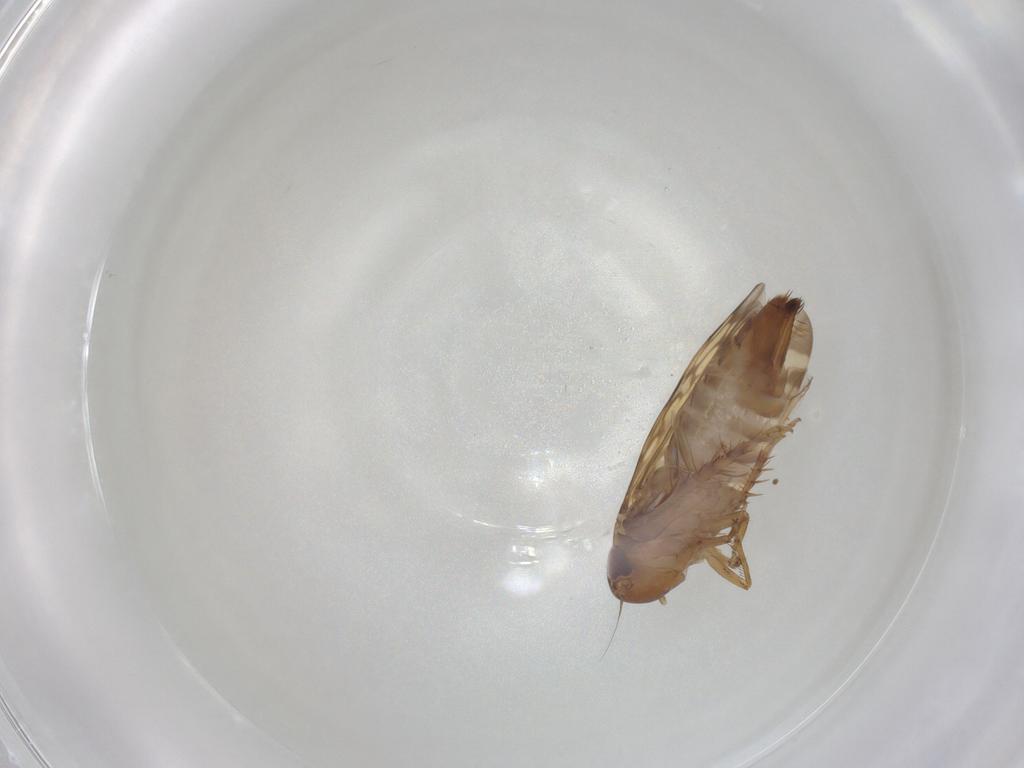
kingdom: Animalia
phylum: Arthropoda
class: Insecta
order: Hemiptera
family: Cicadellidae
